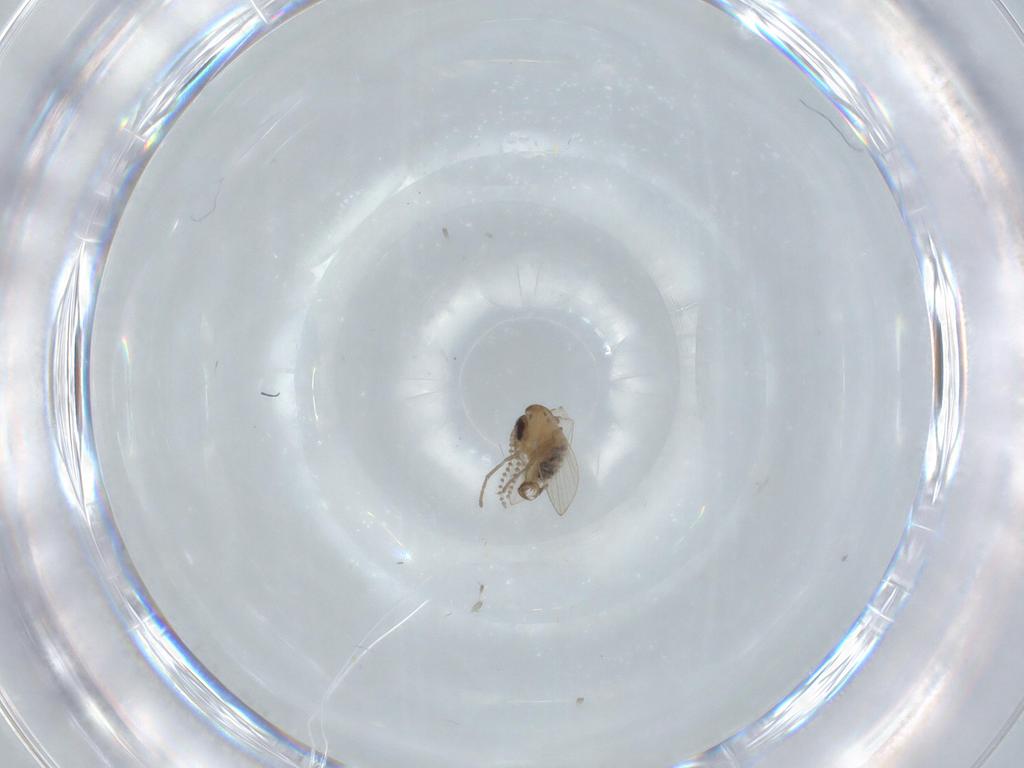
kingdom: Animalia
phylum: Arthropoda
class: Insecta
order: Diptera
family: Psychodidae
